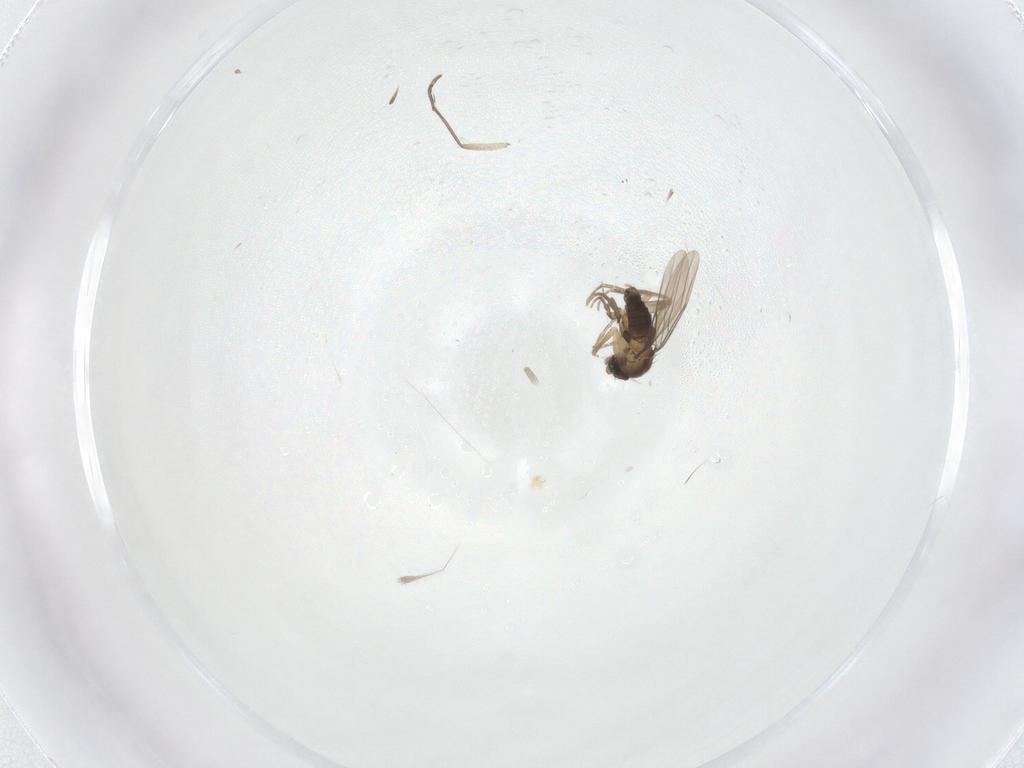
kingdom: Animalia
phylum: Arthropoda
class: Insecta
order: Diptera
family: Phoridae
